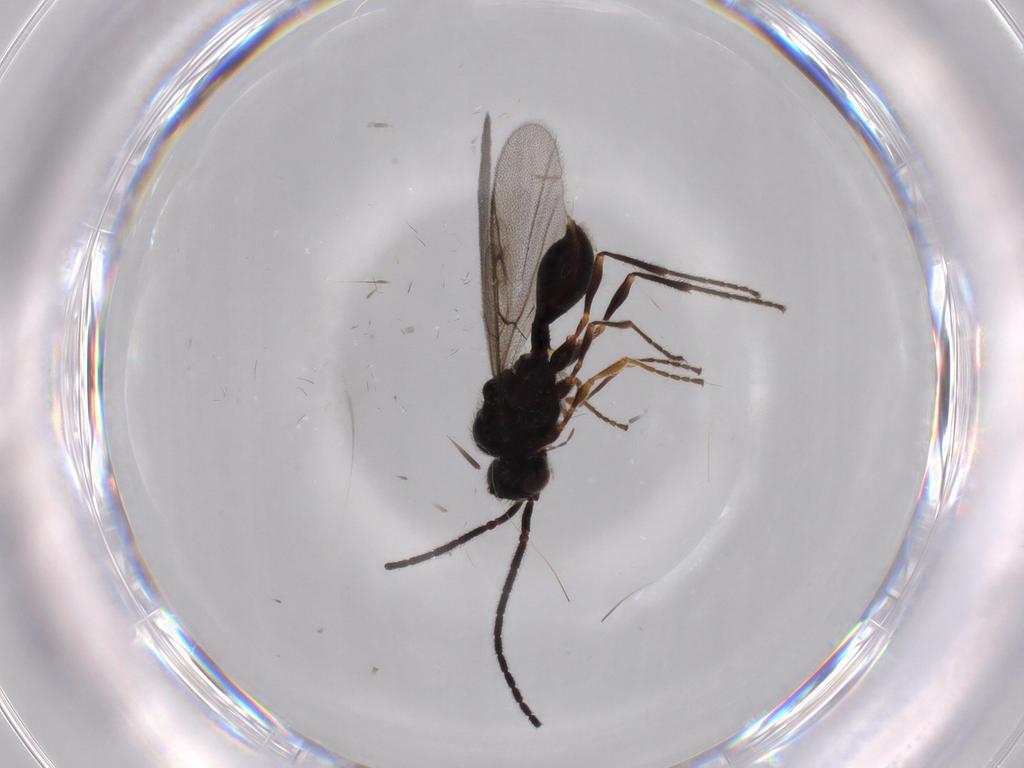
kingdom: Animalia
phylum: Arthropoda
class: Insecta
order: Hymenoptera
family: Diapriidae
